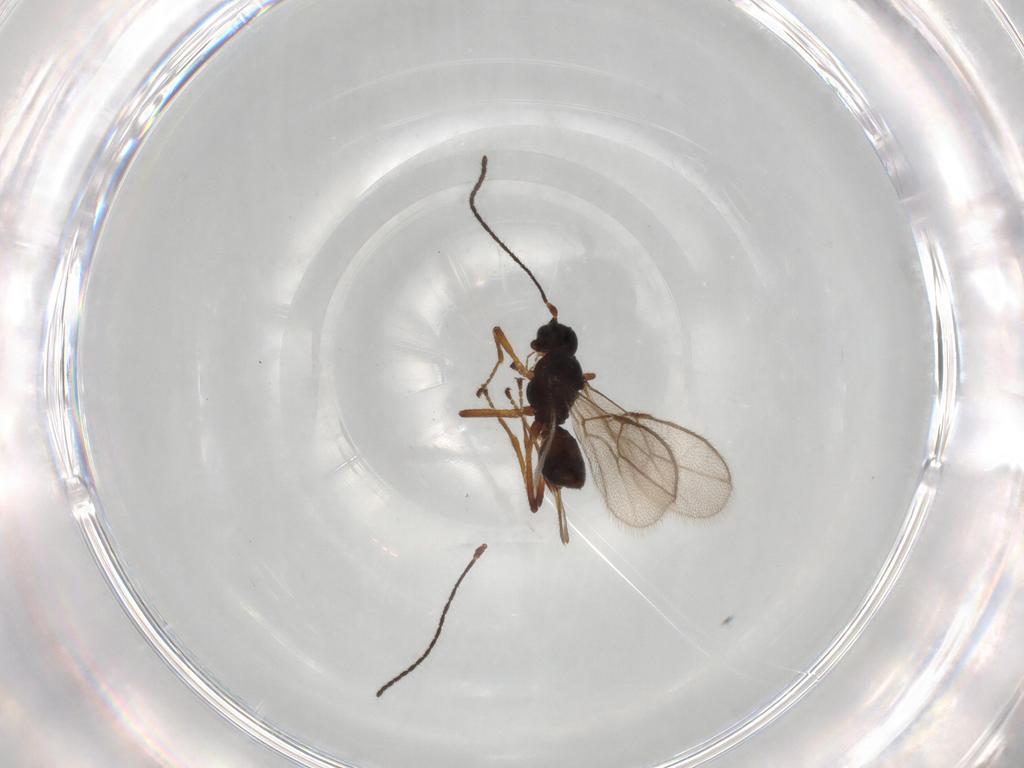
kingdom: Animalia
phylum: Arthropoda
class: Insecta
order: Hymenoptera
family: Braconidae
